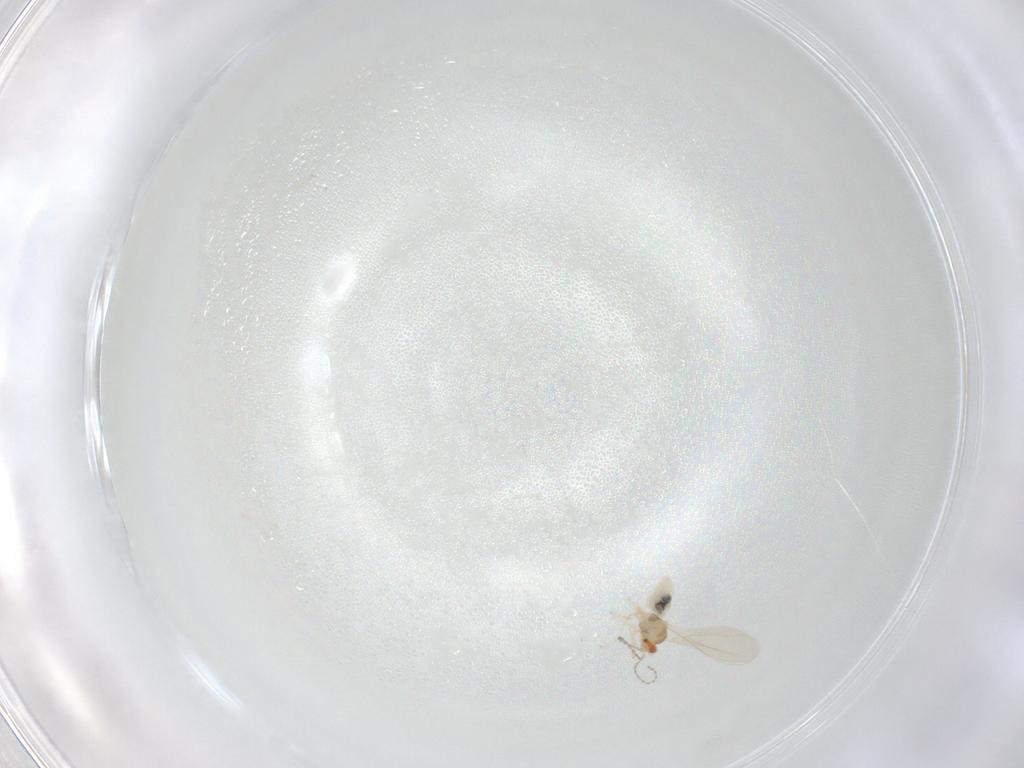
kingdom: Animalia
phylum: Arthropoda
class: Insecta
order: Diptera
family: Cecidomyiidae
